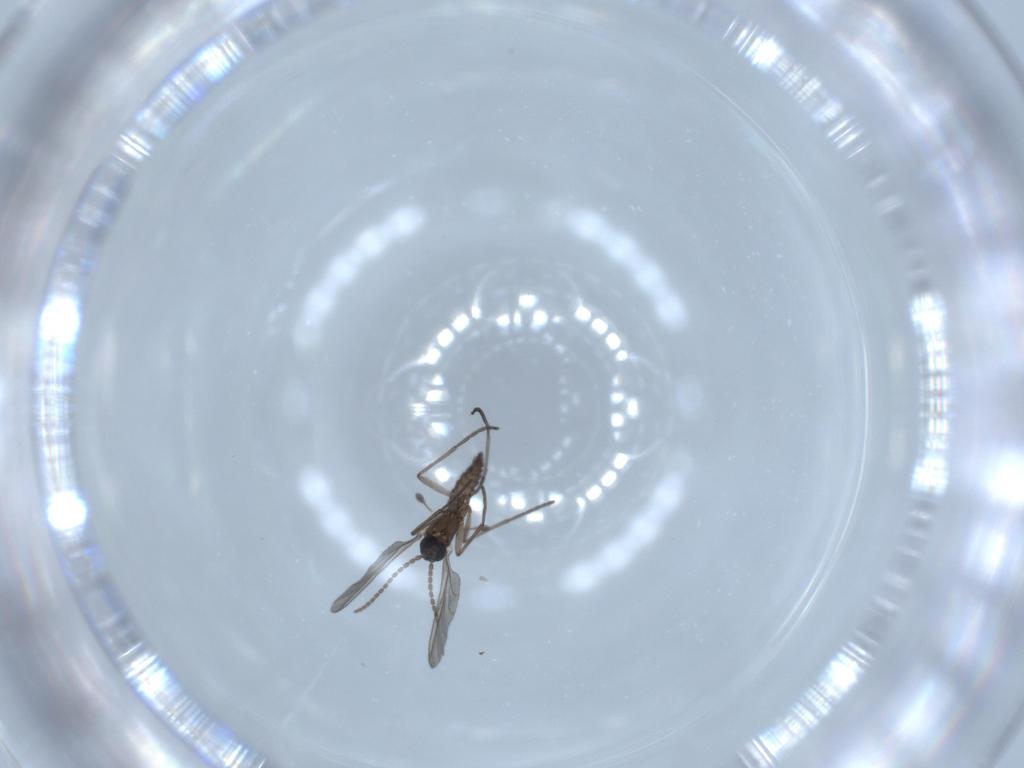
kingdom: Animalia
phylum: Arthropoda
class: Insecta
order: Diptera
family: Sciaridae
